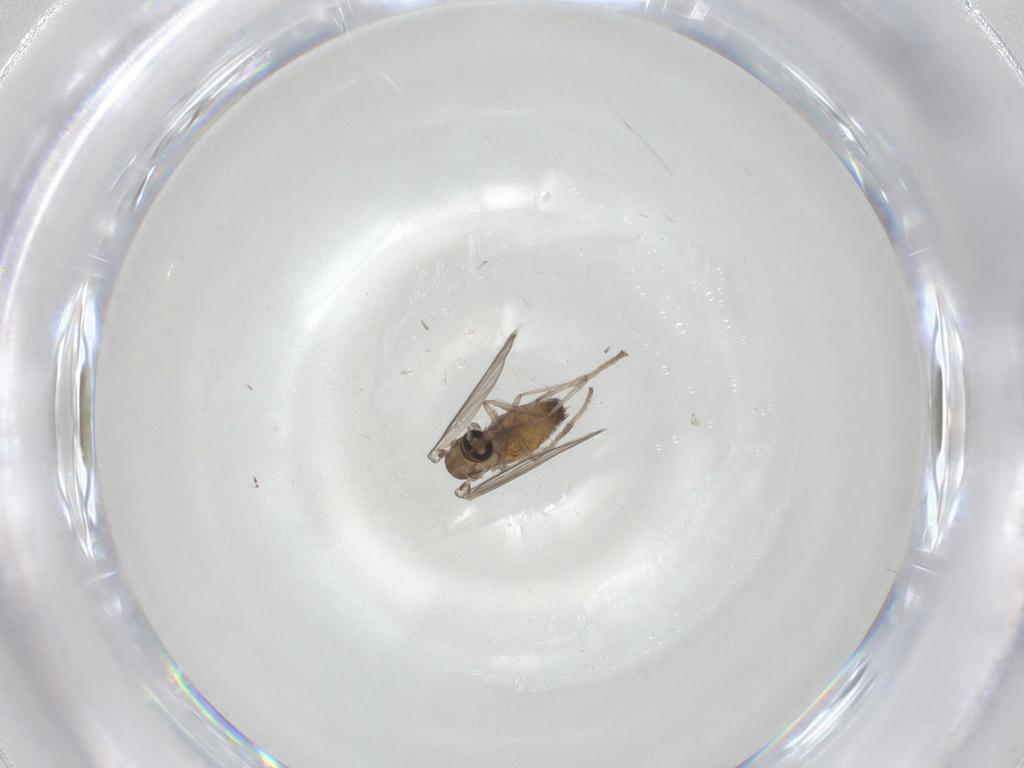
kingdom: Animalia
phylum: Arthropoda
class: Insecta
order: Diptera
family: Psychodidae
